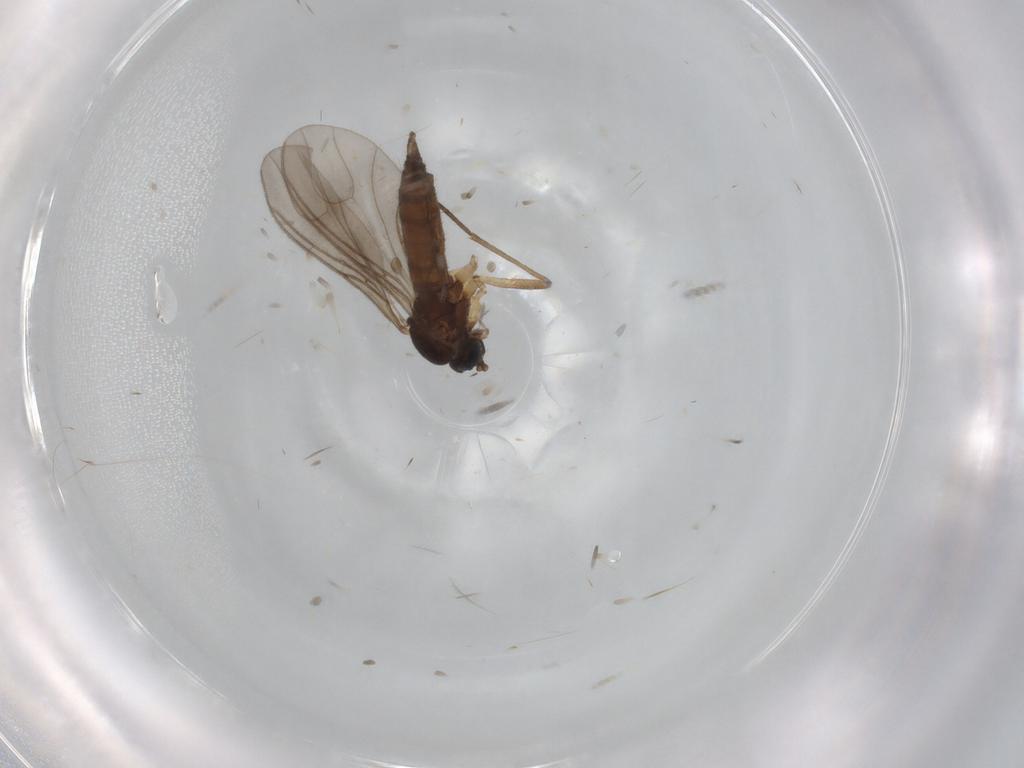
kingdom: Animalia
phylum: Arthropoda
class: Insecta
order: Diptera
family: Sciaridae
